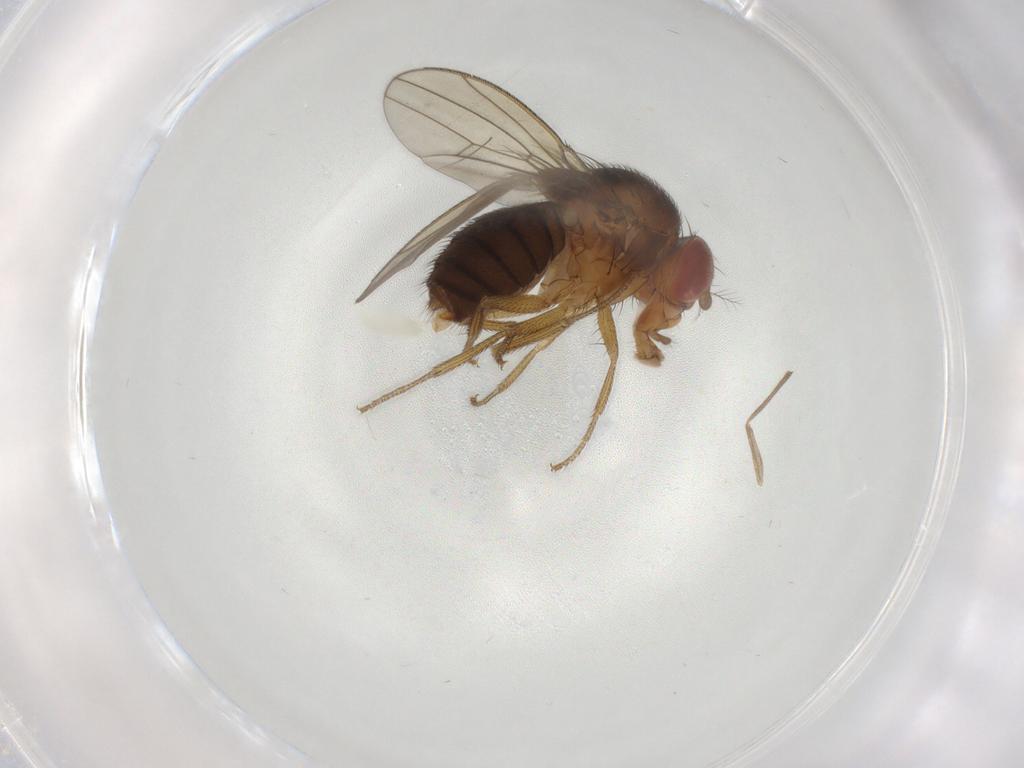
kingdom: Animalia
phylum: Arthropoda
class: Insecta
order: Diptera
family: Drosophilidae
